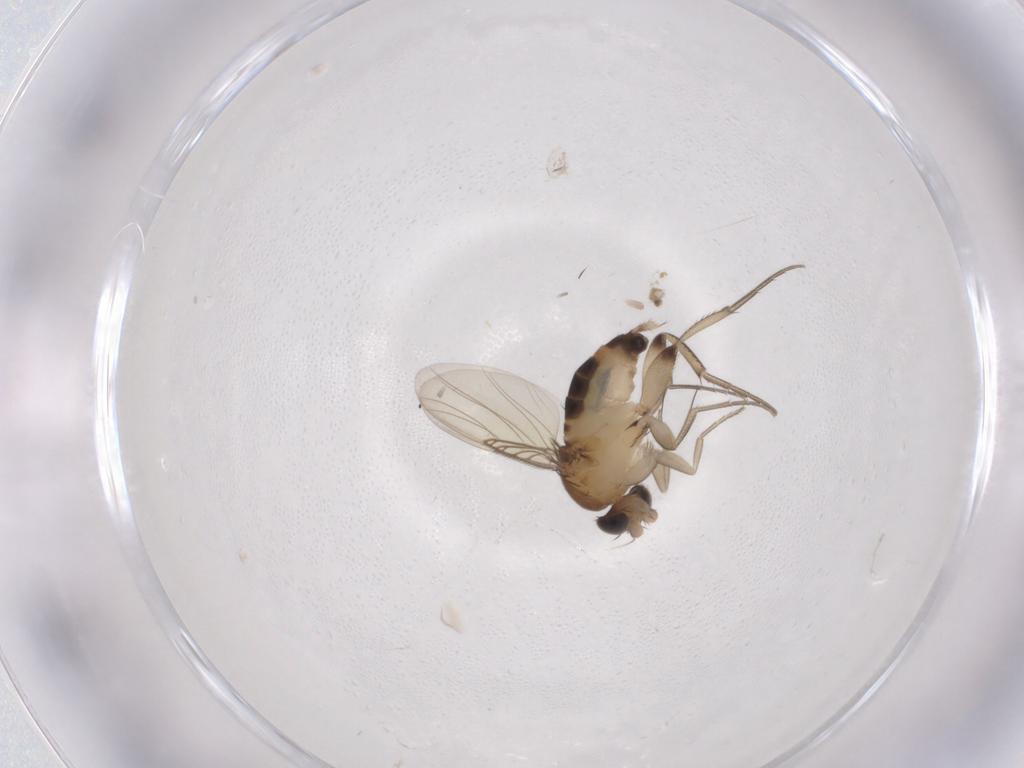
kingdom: Animalia
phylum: Arthropoda
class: Insecta
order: Diptera
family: Phoridae
